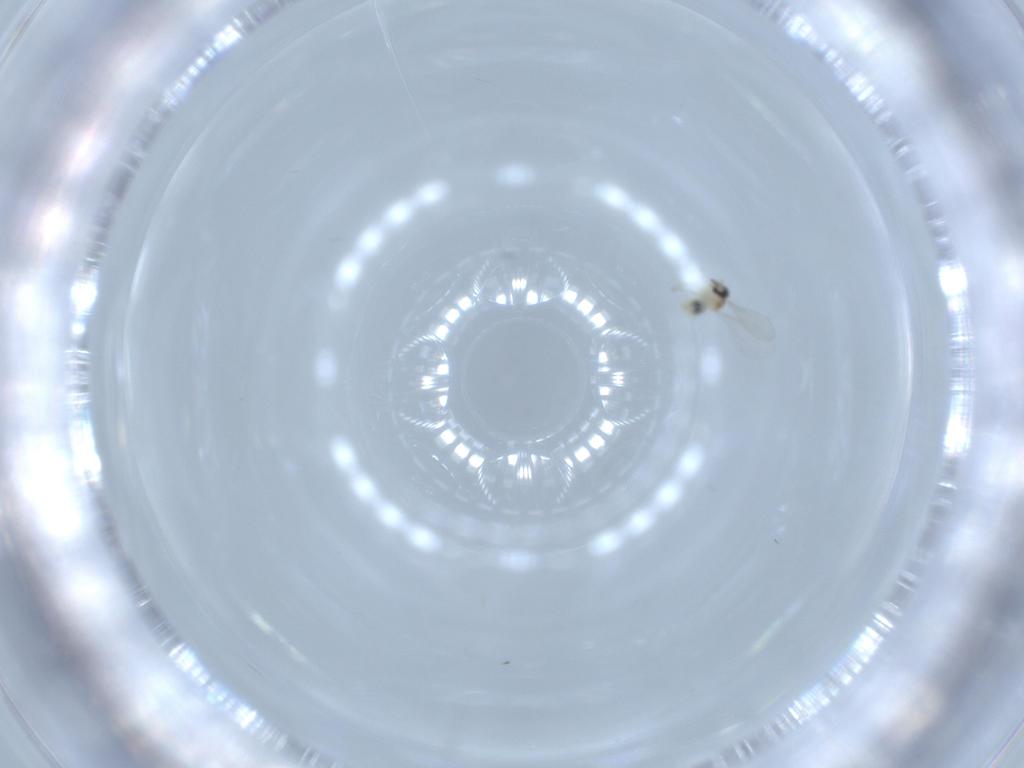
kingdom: Animalia
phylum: Arthropoda
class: Insecta
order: Diptera
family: Cecidomyiidae
